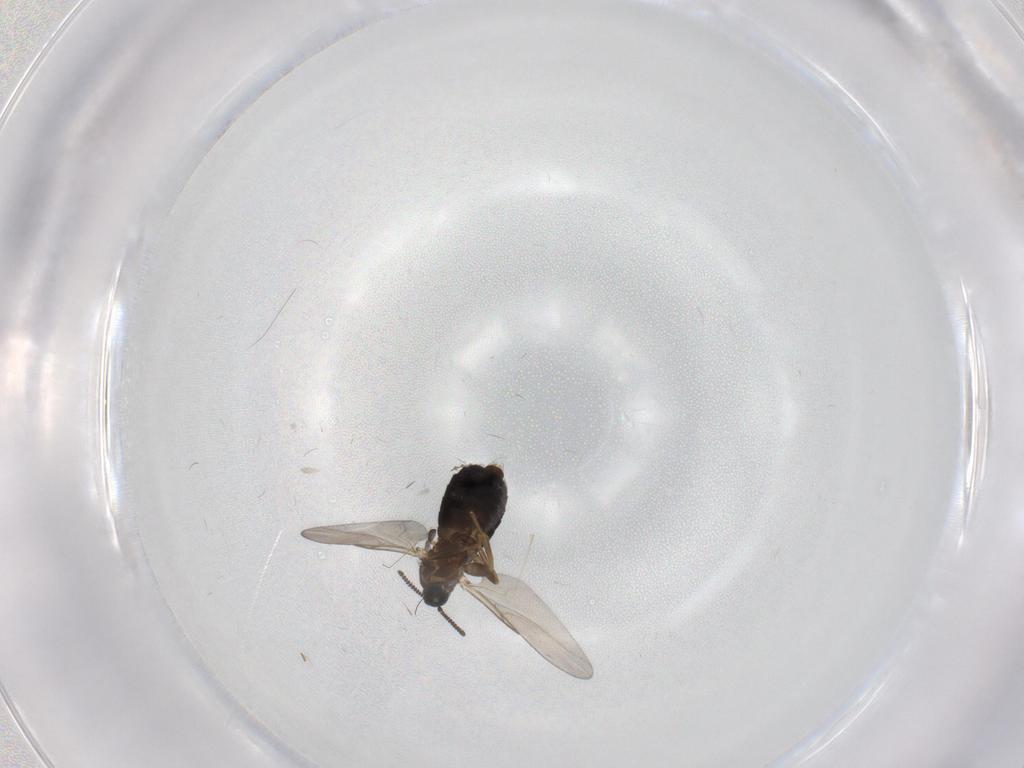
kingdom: Animalia
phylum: Arthropoda
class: Insecta
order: Diptera
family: Scatopsidae
